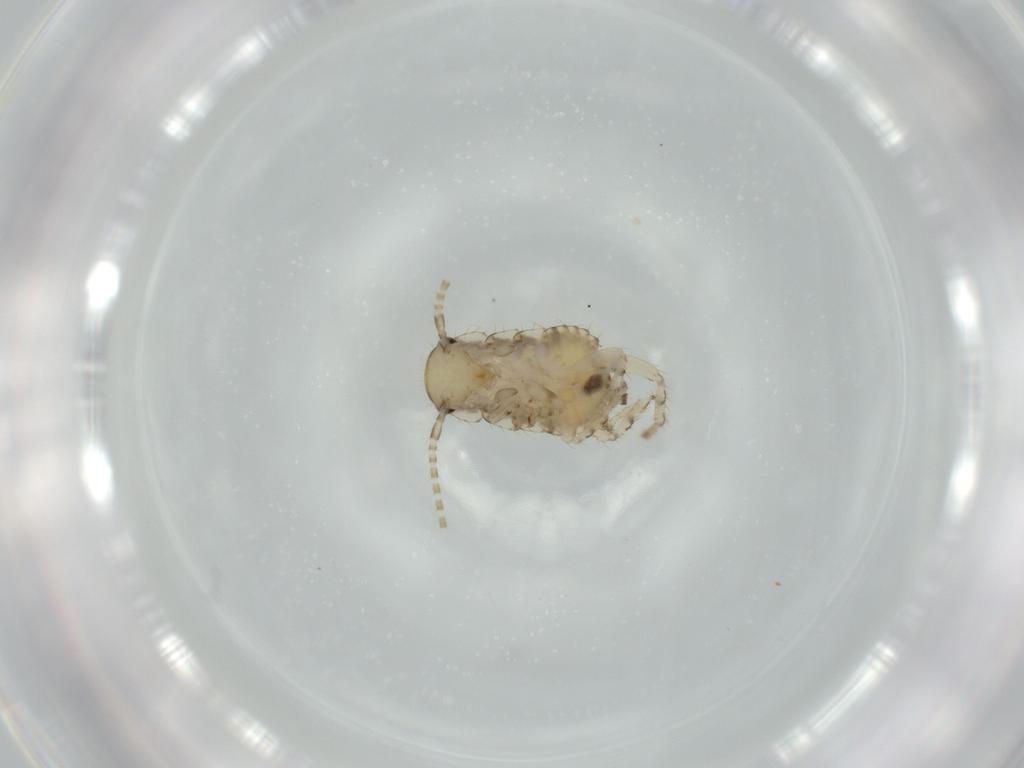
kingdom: Animalia
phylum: Arthropoda
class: Insecta
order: Blattodea
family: Ectobiidae
